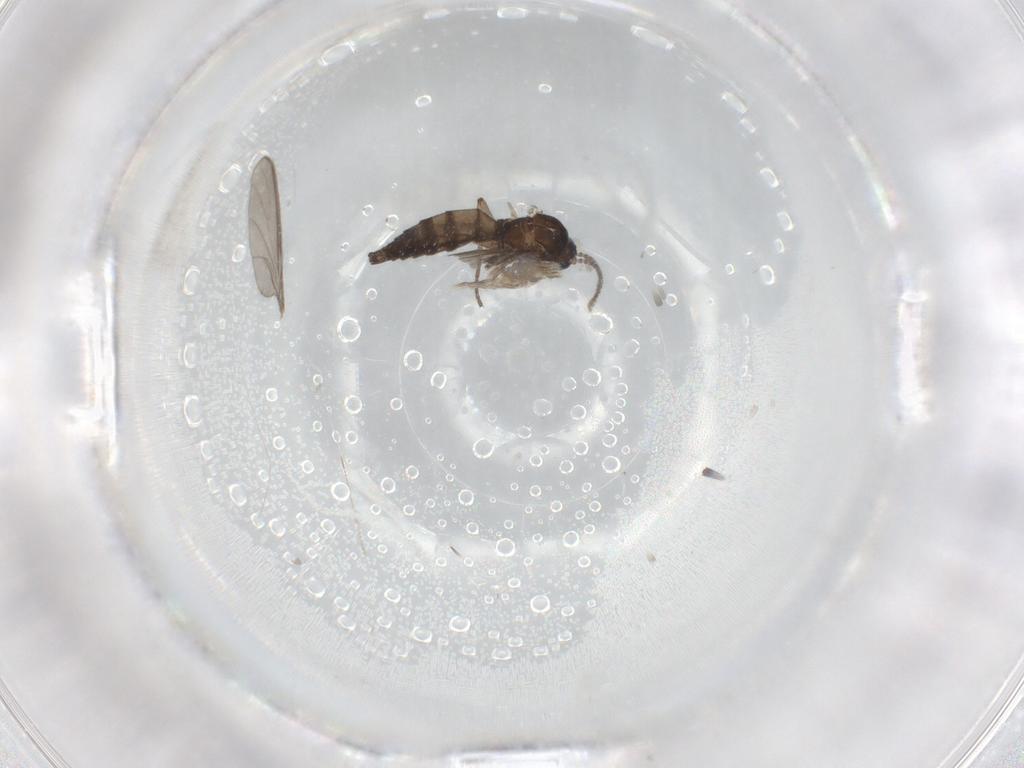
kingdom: Animalia
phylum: Arthropoda
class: Insecta
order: Diptera
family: Sciaridae
